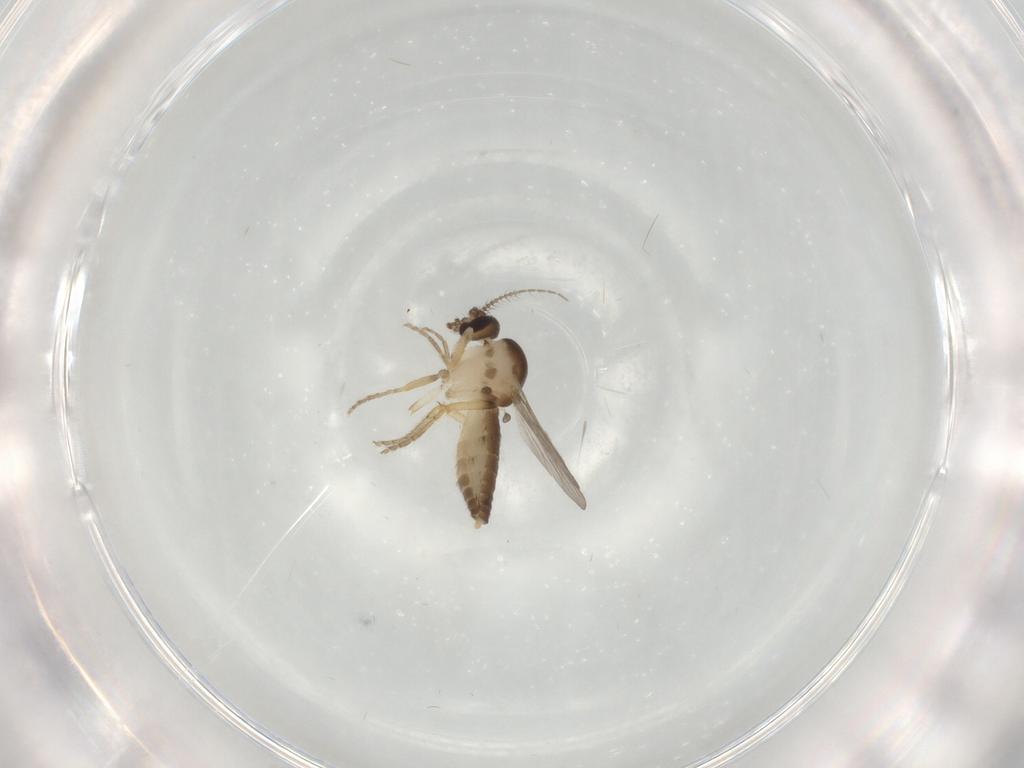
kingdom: Animalia
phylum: Arthropoda
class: Insecta
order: Diptera
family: Ceratopogonidae
